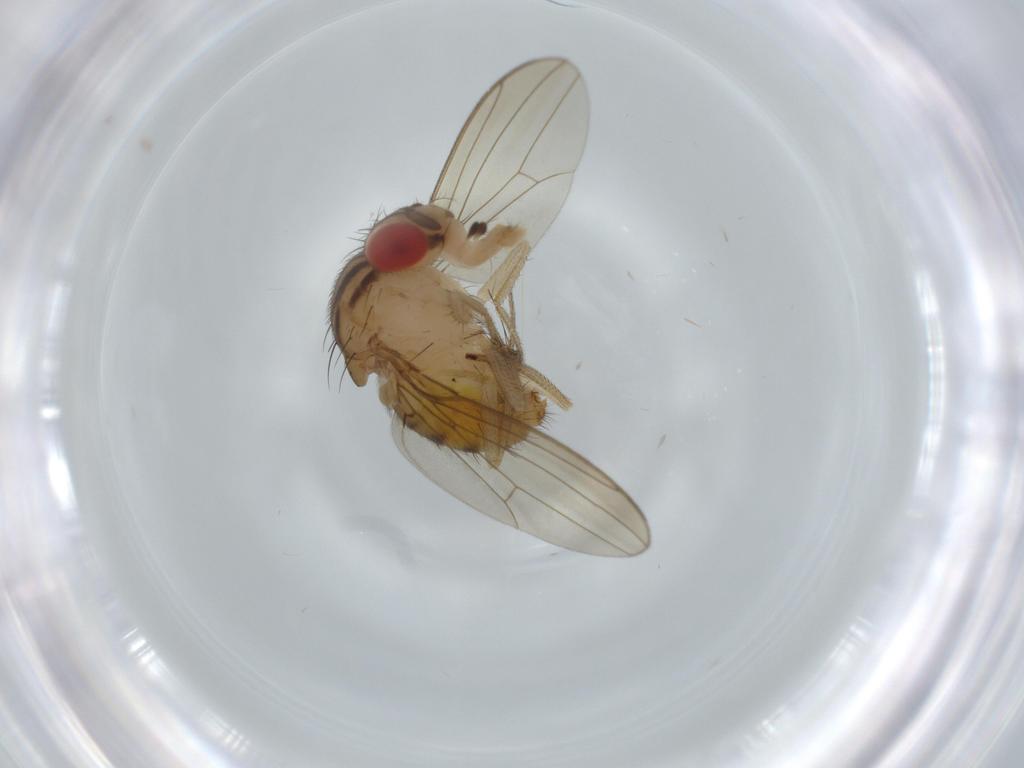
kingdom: Animalia
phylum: Arthropoda
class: Insecta
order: Diptera
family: Drosophilidae
